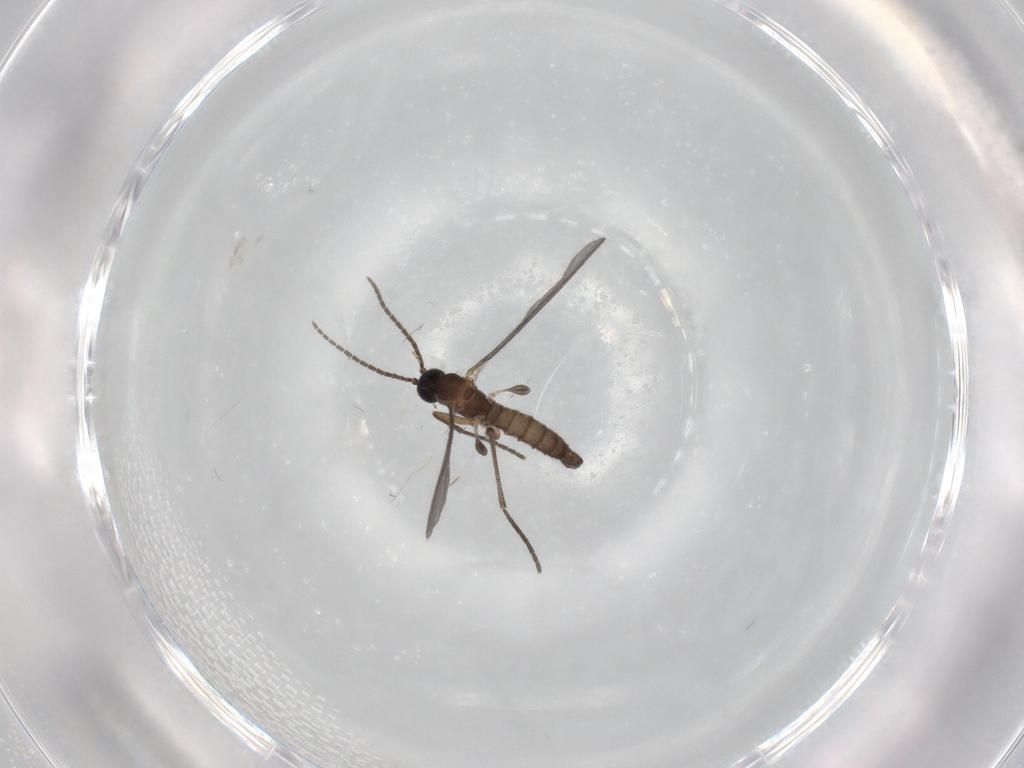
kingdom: Animalia
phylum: Arthropoda
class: Insecta
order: Diptera
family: Sciaridae
